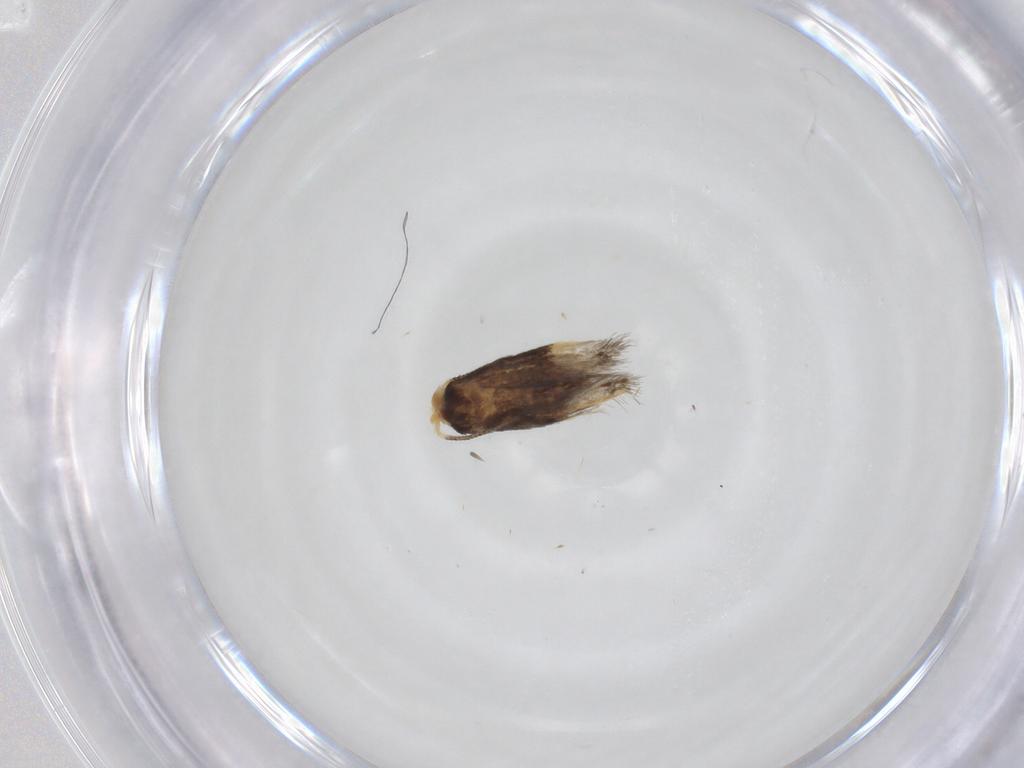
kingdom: Animalia
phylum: Arthropoda
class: Insecta
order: Lepidoptera
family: Nepticulidae
